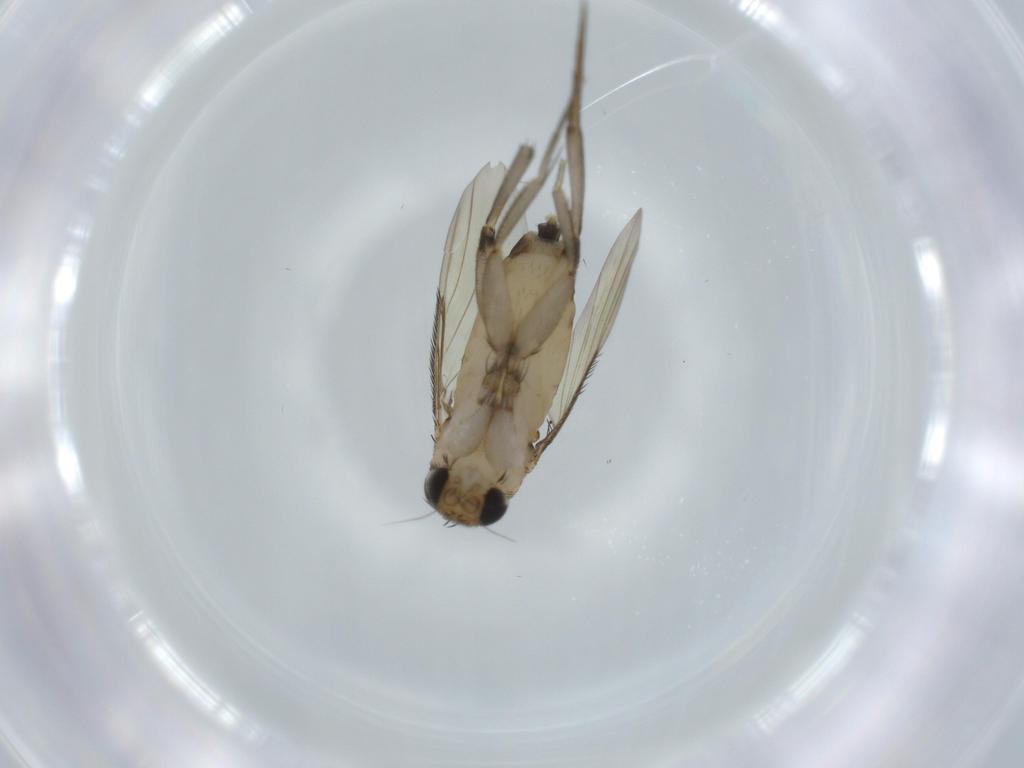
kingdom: Animalia
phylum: Arthropoda
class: Insecta
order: Diptera
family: Phoridae
